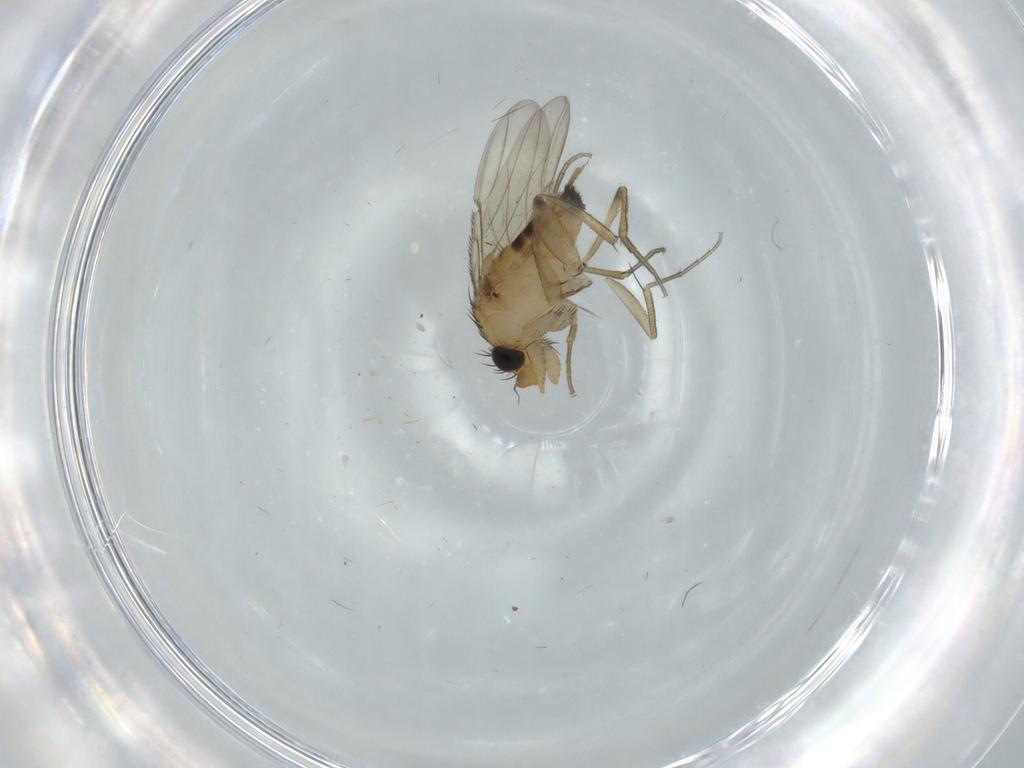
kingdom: Animalia
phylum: Arthropoda
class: Insecta
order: Diptera
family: Phoridae
